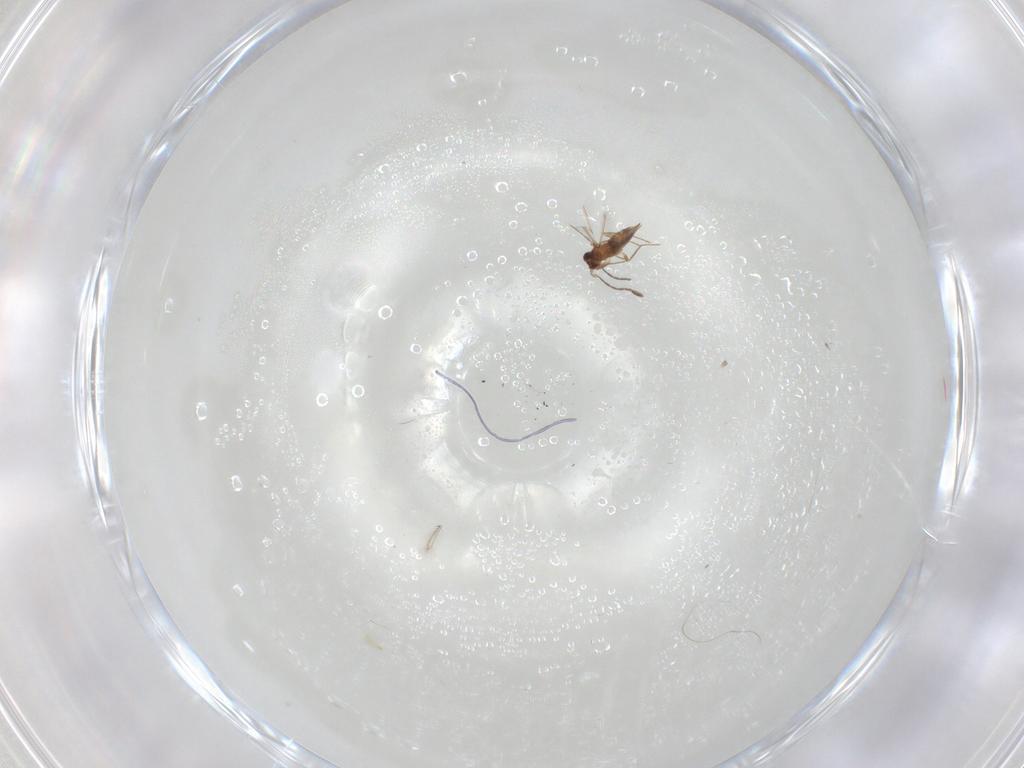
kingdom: Animalia
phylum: Arthropoda
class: Insecta
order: Hymenoptera
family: Mymaridae
